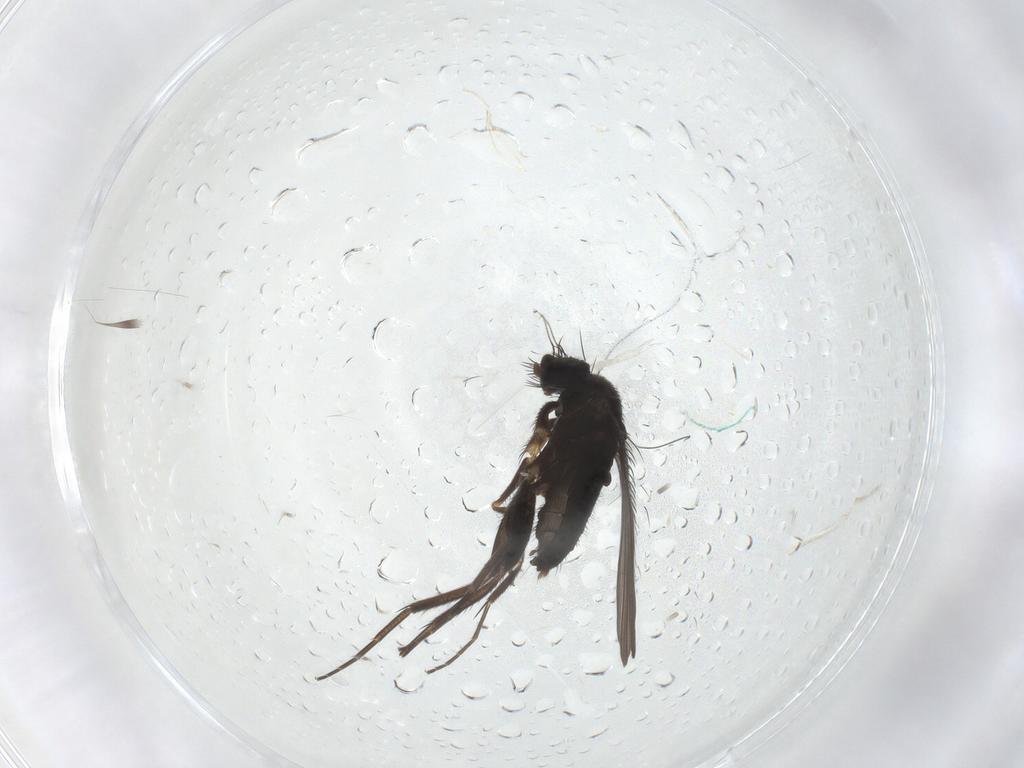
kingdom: Animalia
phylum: Arthropoda
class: Insecta
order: Diptera
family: Phoridae
